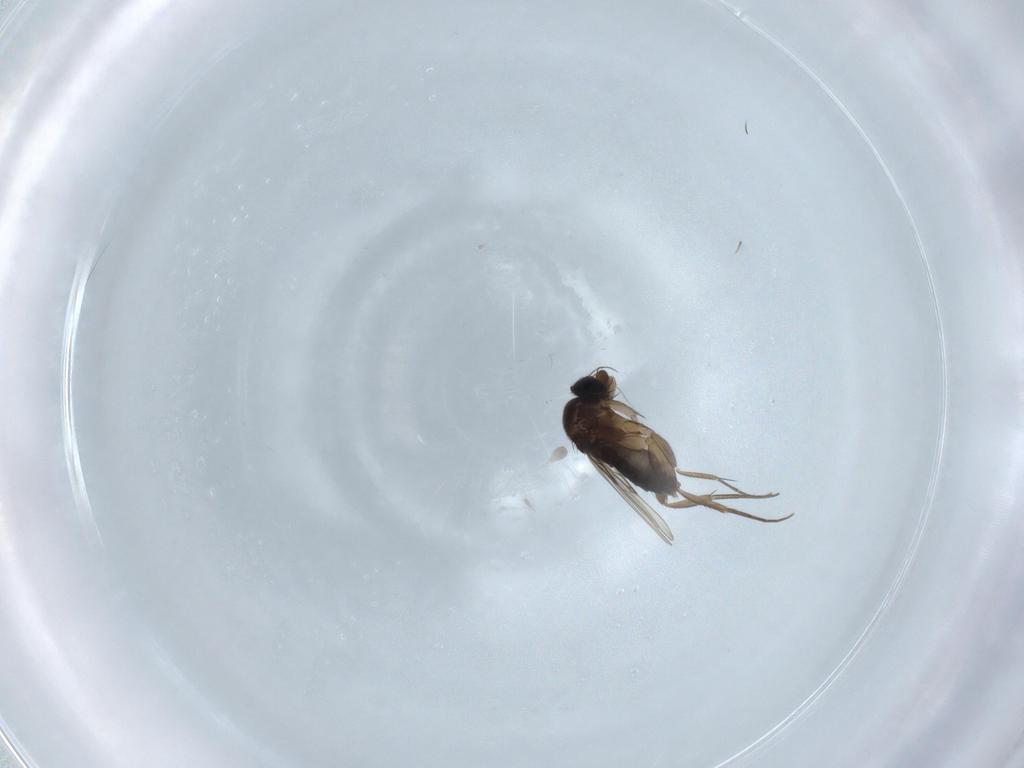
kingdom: Animalia
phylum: Arthropoda
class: Insecta
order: Diptera
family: Phoridae
